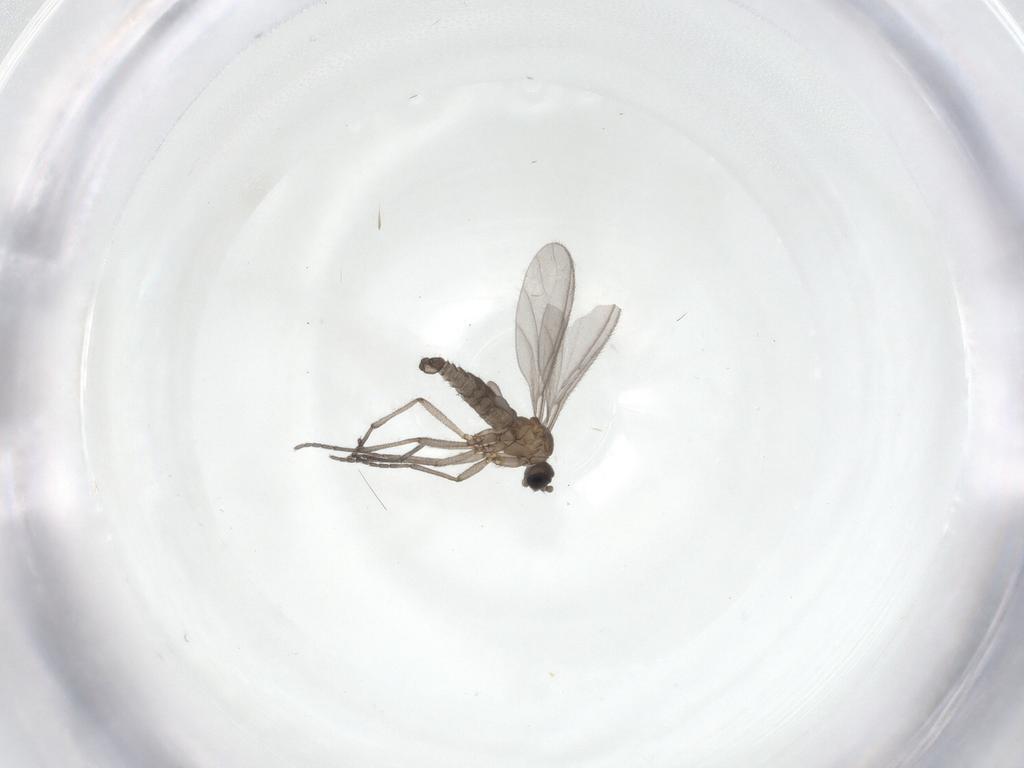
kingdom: Animalia
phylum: Arthropoda
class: Insecta
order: Diptera
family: Sciaridae
